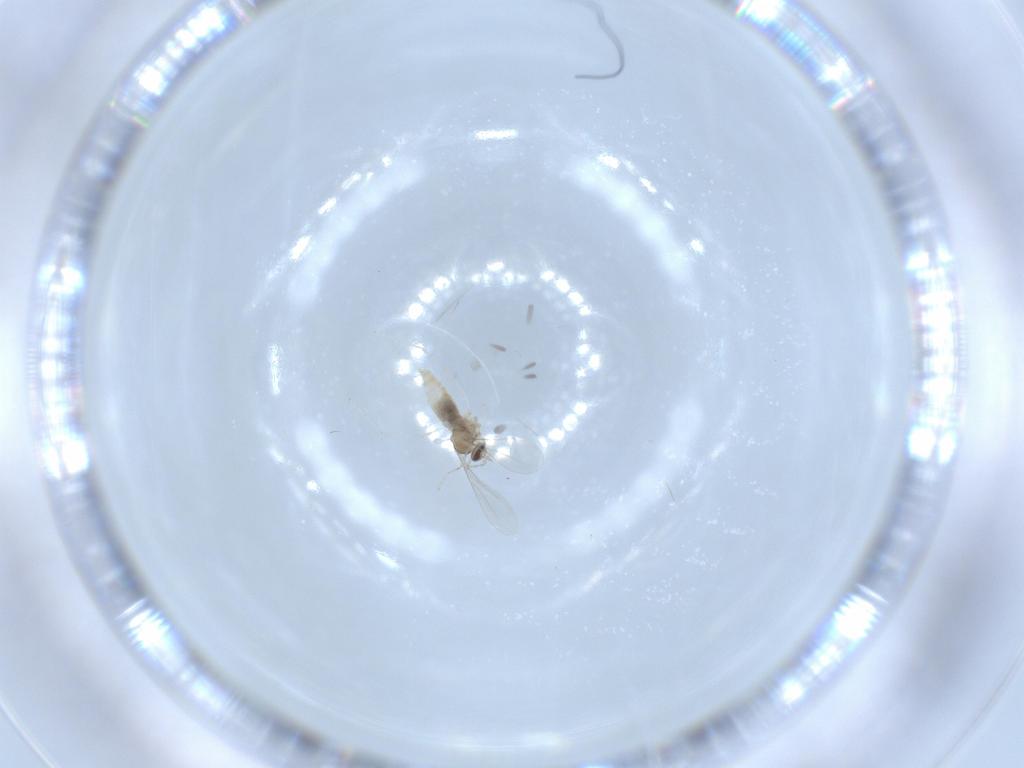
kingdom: Animalia
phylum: Arthropoda
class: Insecta
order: Diptera
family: Cecidomyiidae
